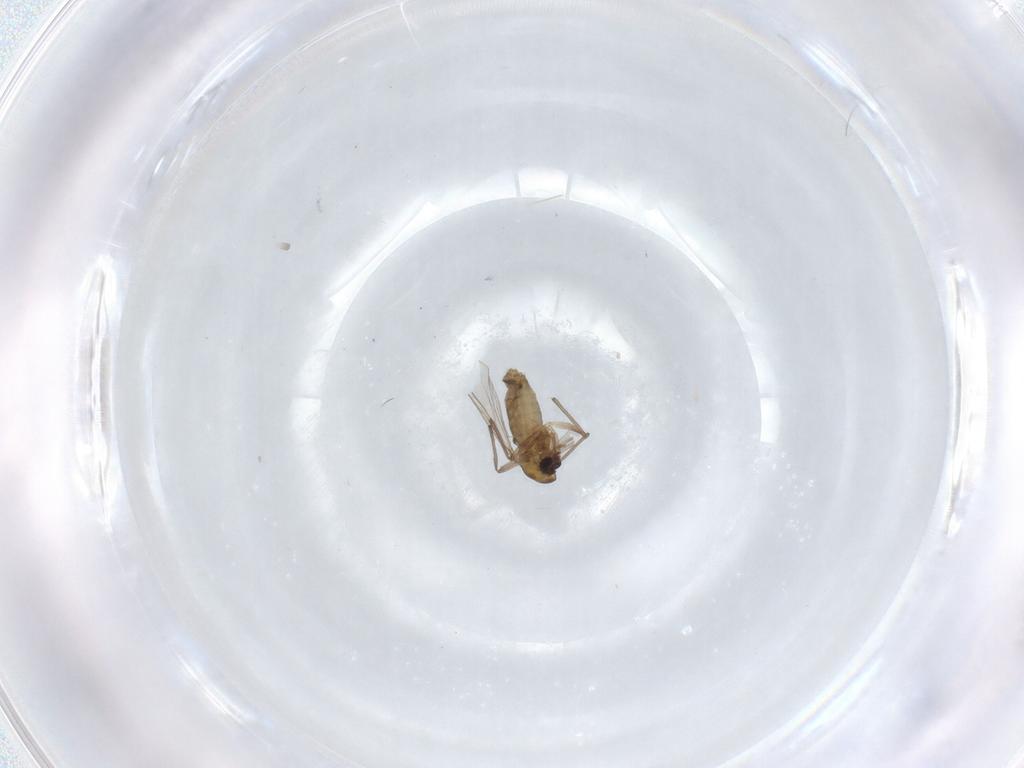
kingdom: Animalia
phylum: Arthropoda
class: Insecta
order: Diptera
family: Chironomidae
